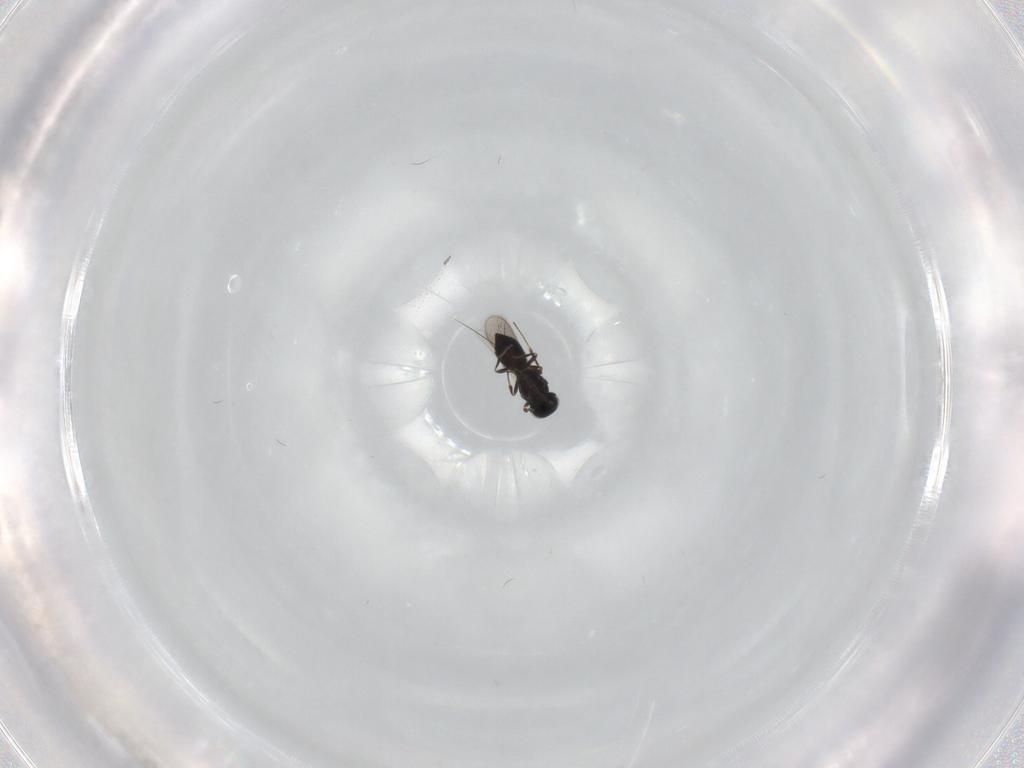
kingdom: Animalia
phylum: Arthropoda
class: Insecta
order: Hymenoptera
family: Scelionidae
